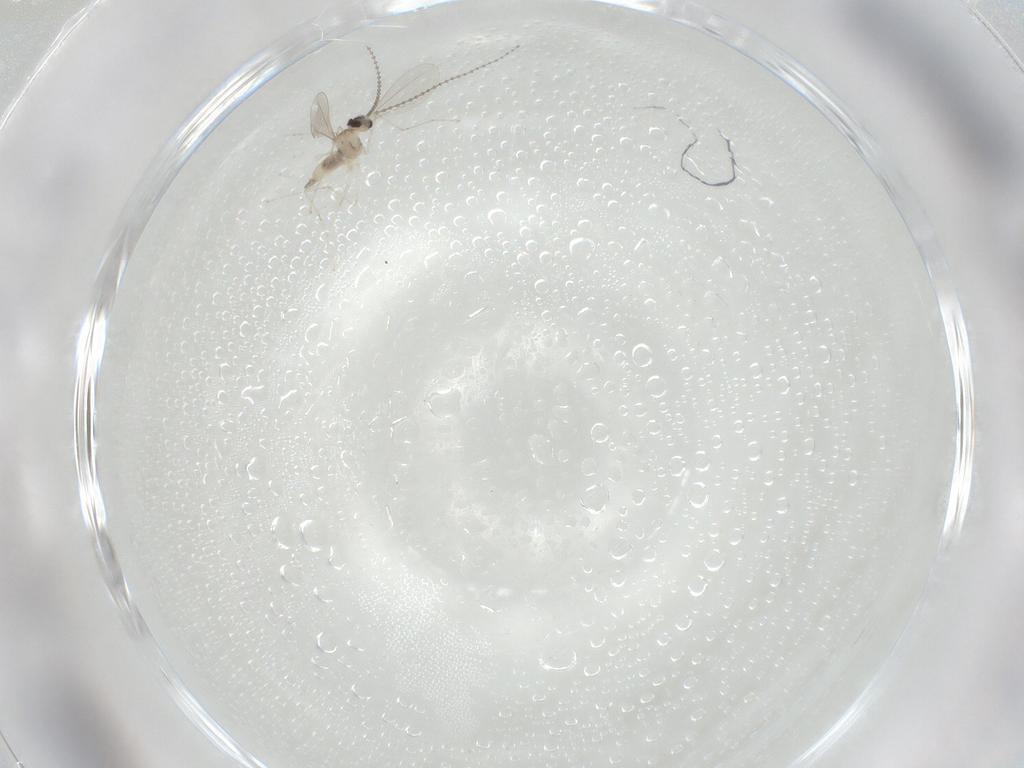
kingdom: Animalia
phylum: Arthropoda
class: Insecta
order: Diptera
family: Cecidomyiidae
